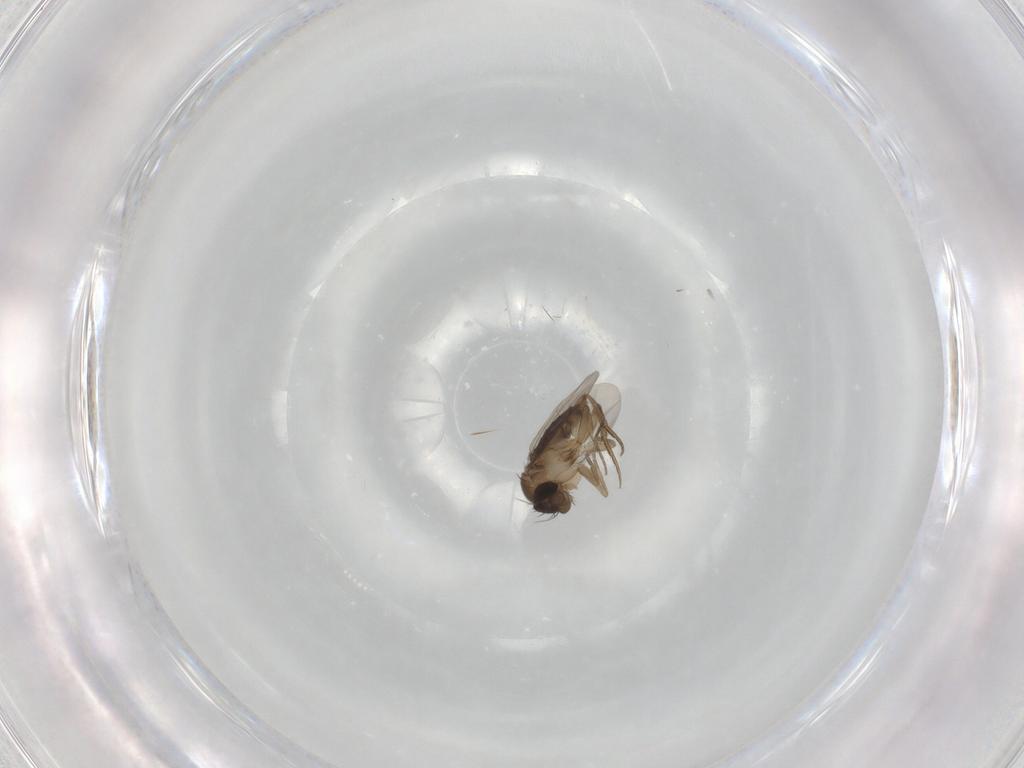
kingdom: Animalia
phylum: Arthropoda
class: Insecta
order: Diptera
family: Phoridae
